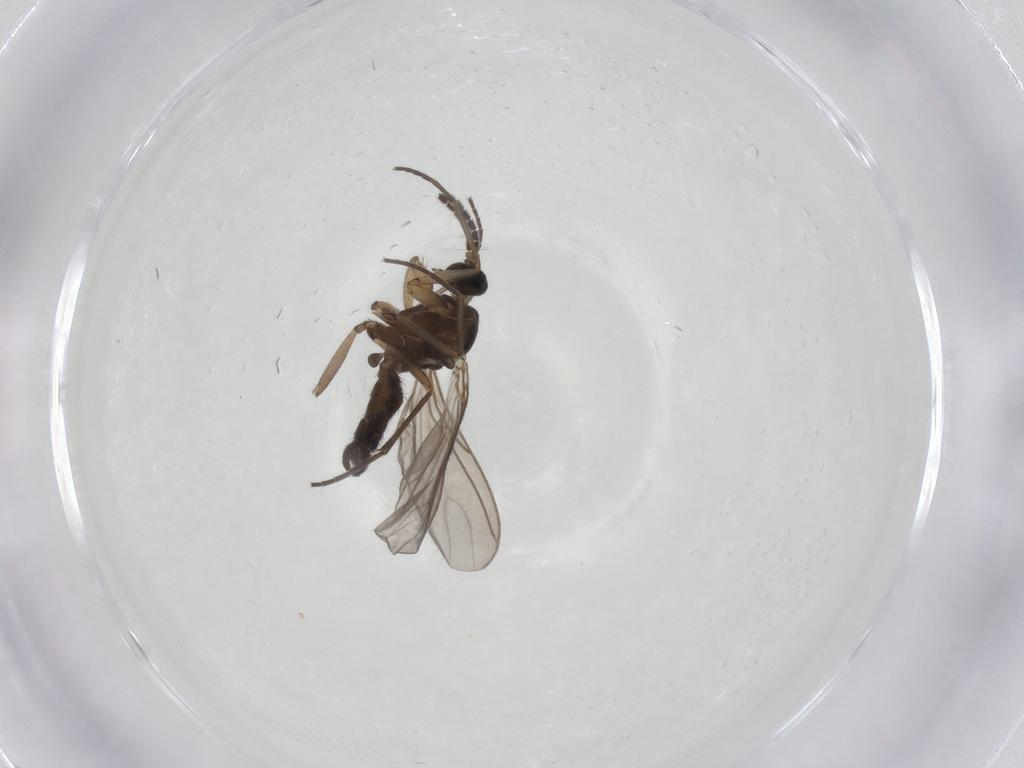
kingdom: Animalia
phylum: Arthropoda
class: Insecta
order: Diptera
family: Sciaridae
